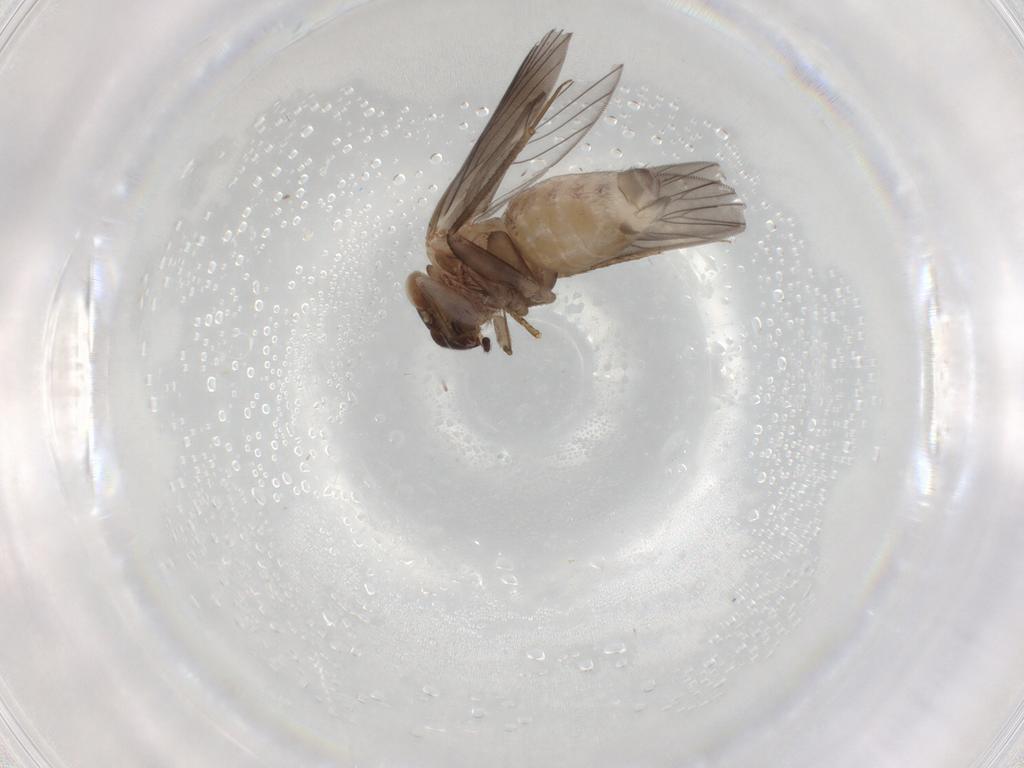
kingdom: Animalia
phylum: Arthropoda
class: Insecta
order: Psocodea
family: Lepidopsocidae
